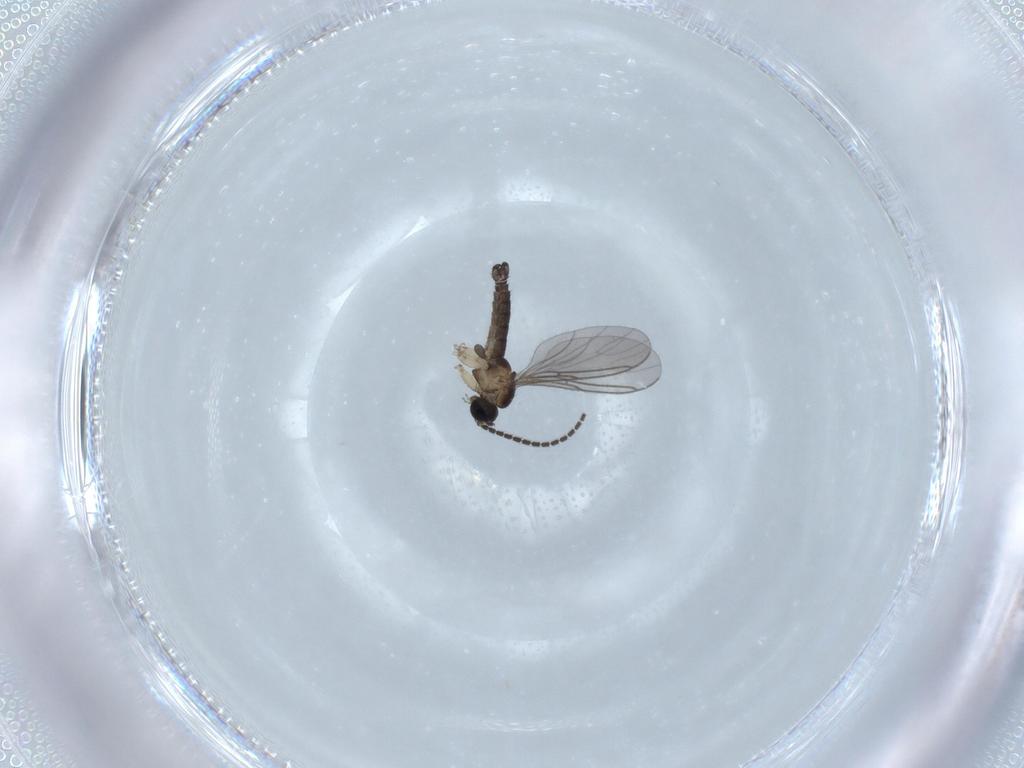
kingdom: Animalia
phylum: Arthropoda
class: Insecta
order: Diptera
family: Sciaridae
